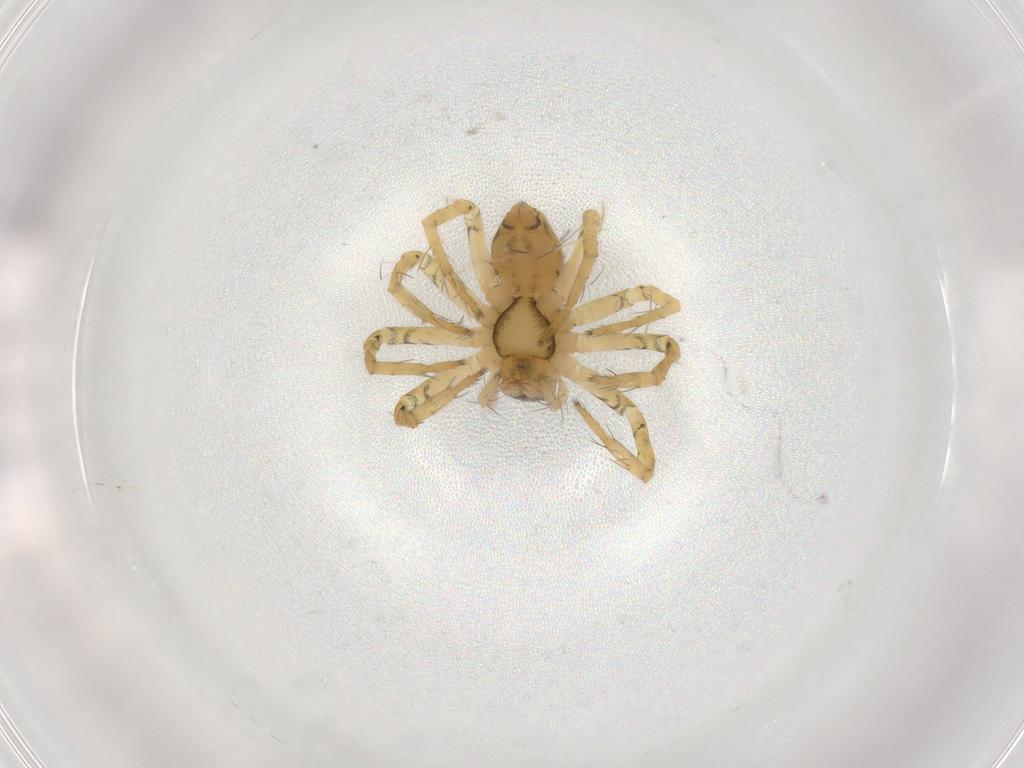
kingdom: Animalia
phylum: Arthropoda
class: Arachnida
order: Araneae
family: Pisauridae
